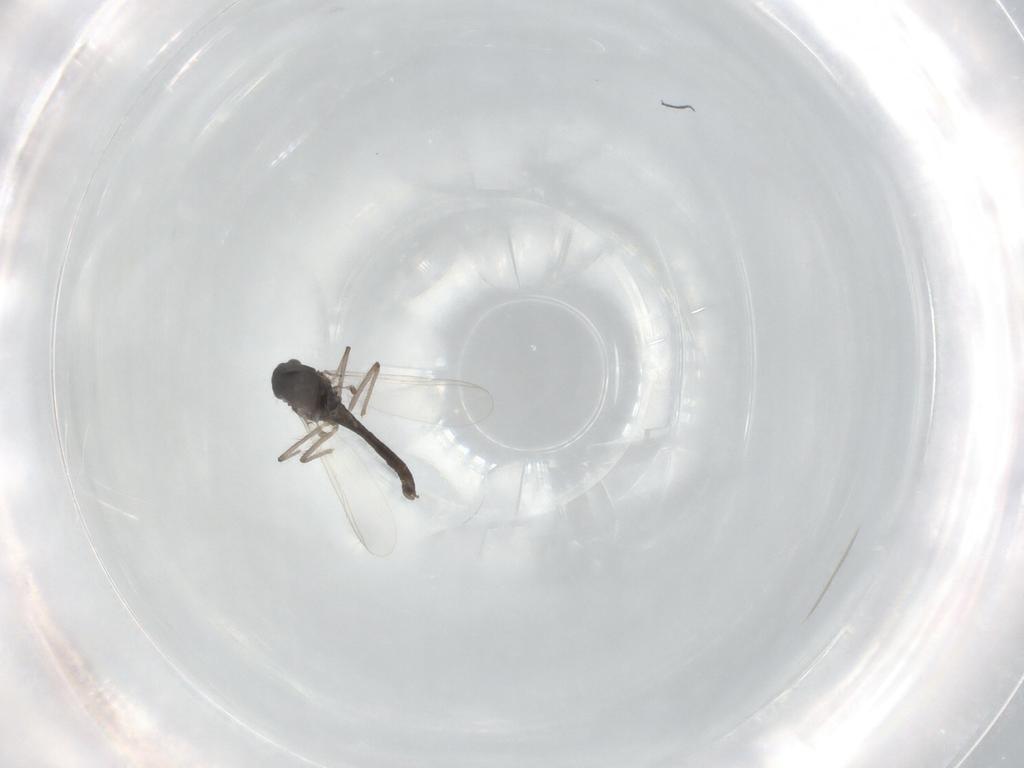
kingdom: Animalia
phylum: Arthropoda
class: Insecta
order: Diptera
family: Chironomidae
